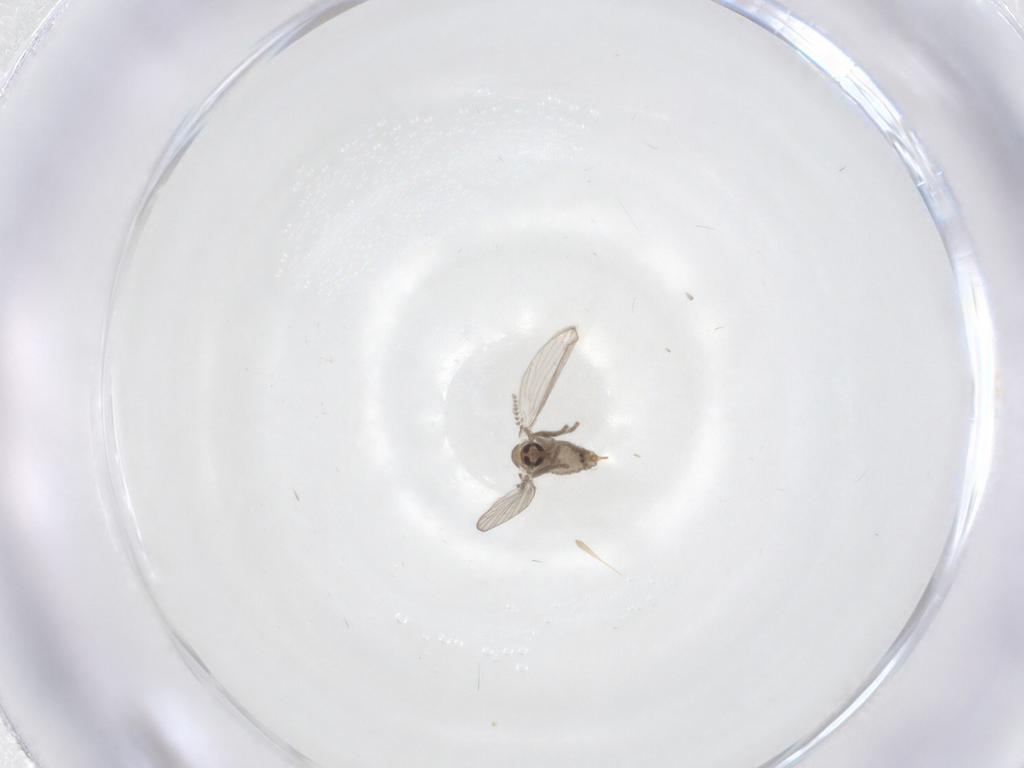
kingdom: Animalia
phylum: Arthropoda
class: Insecta
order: Diptera
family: Psychodidae
